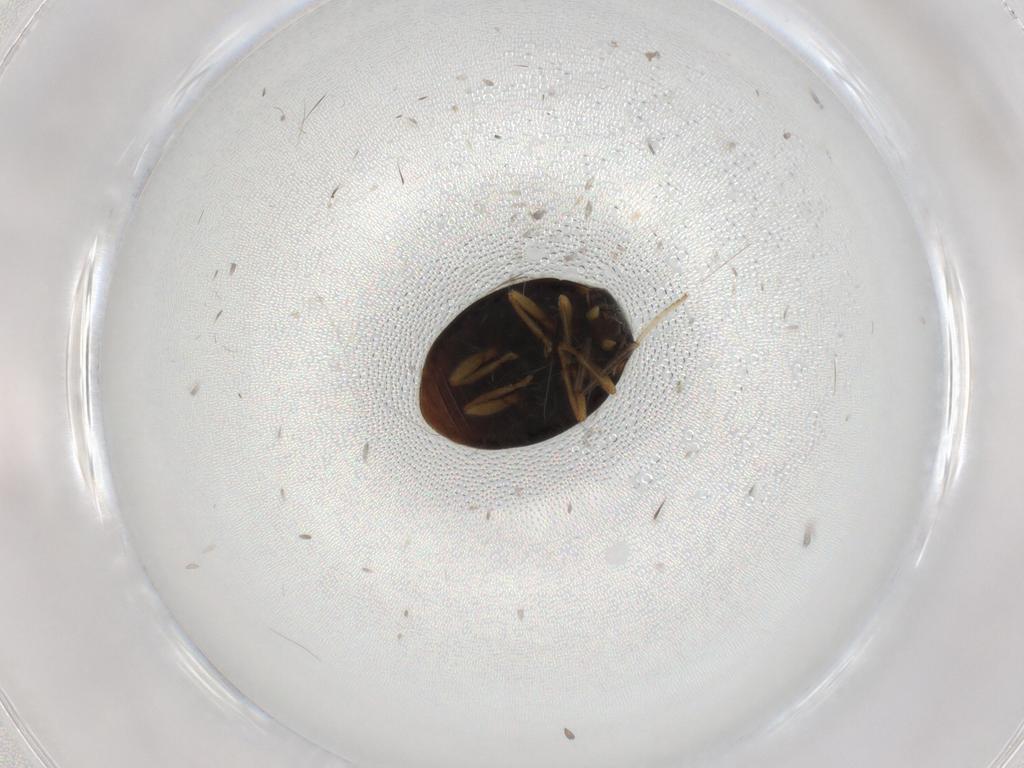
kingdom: Animalia
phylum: Arthropoda
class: Insecta
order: Coleoptera
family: Coccinellidae
